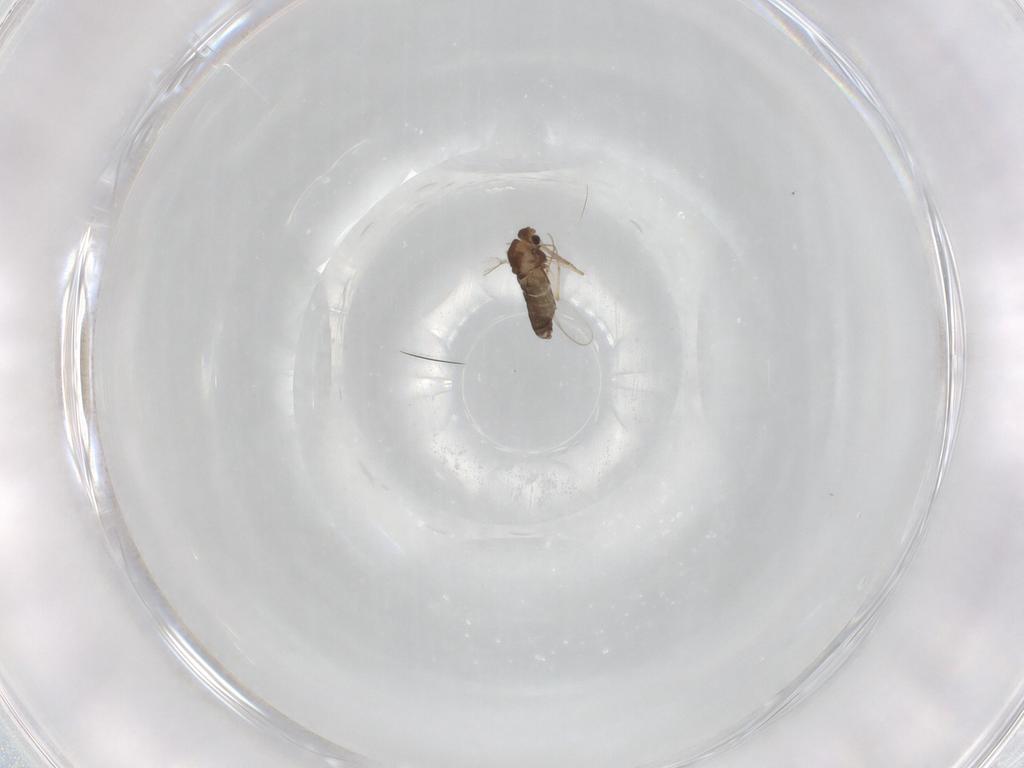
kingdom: Animalia
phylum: Arthropoda
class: Insecta
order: Diptera
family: Chironomidae
